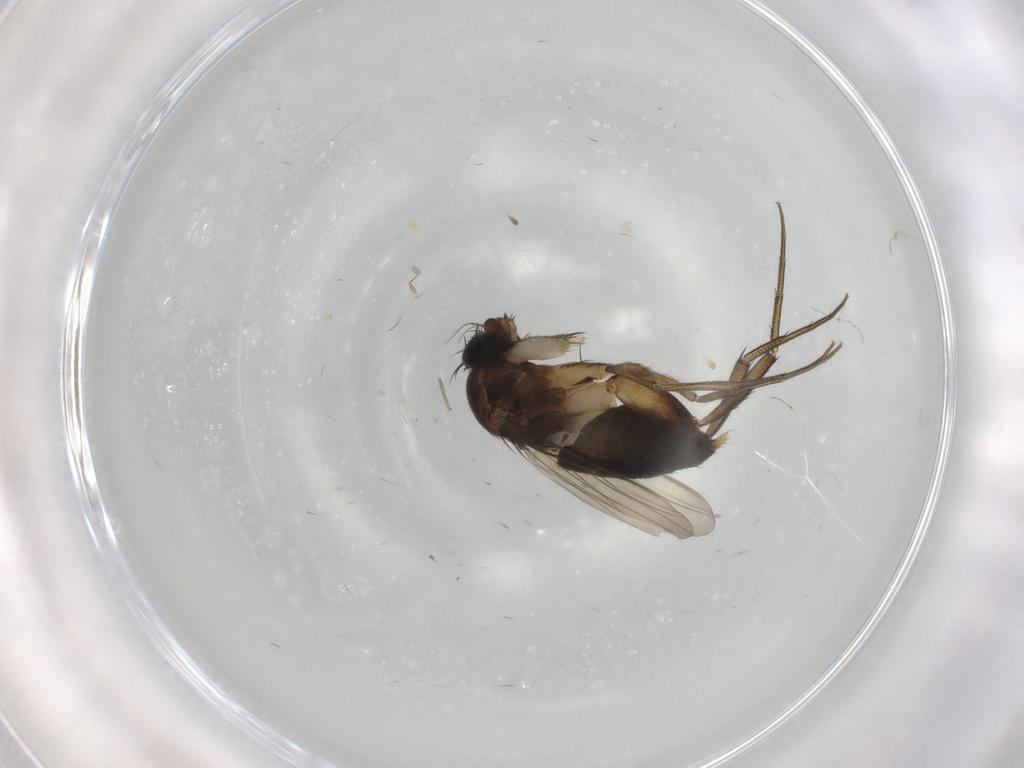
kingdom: Animalia
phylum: Arthropoda
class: Insecta
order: Diptera
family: Phoridae
